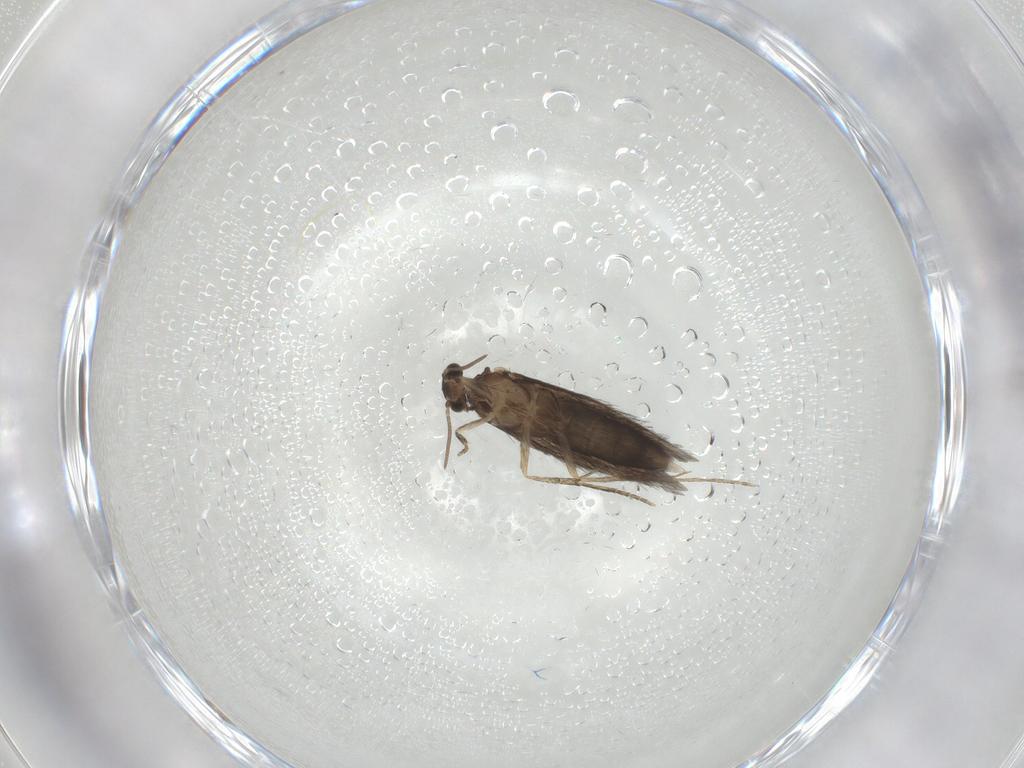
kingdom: Animalia
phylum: Arthropoda
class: Insecta
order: Trichoptera
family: Hydroptilidae
